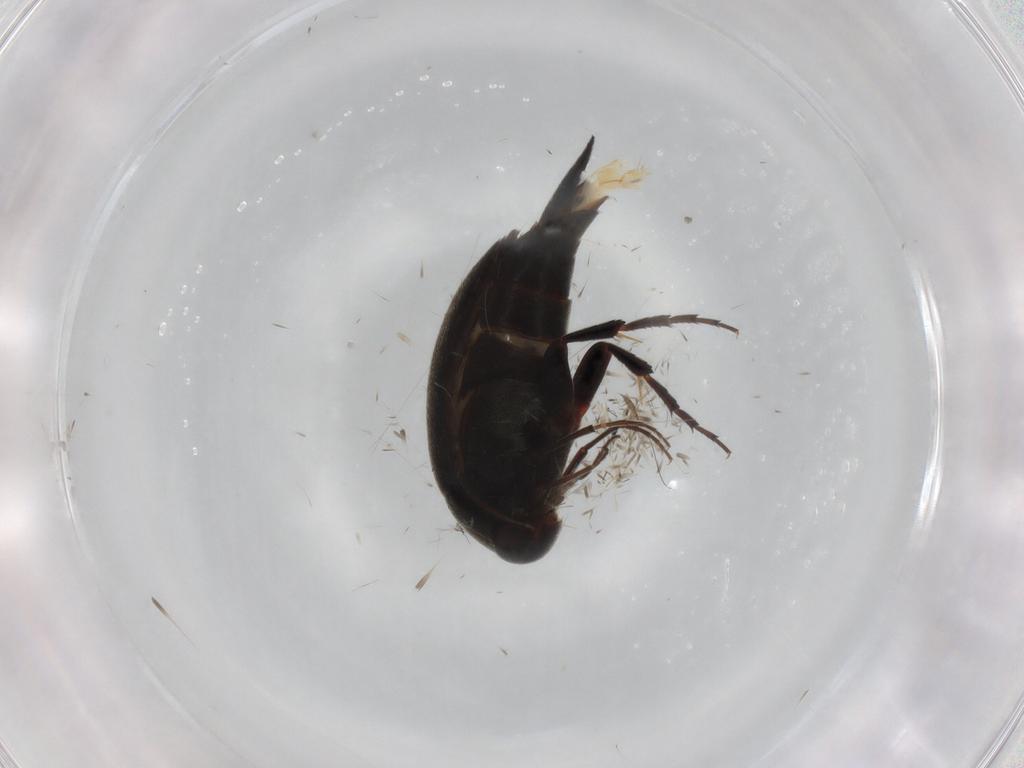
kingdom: Animalia
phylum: Arthropoda
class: Insecta
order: Coleoptera
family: Mordellidae
